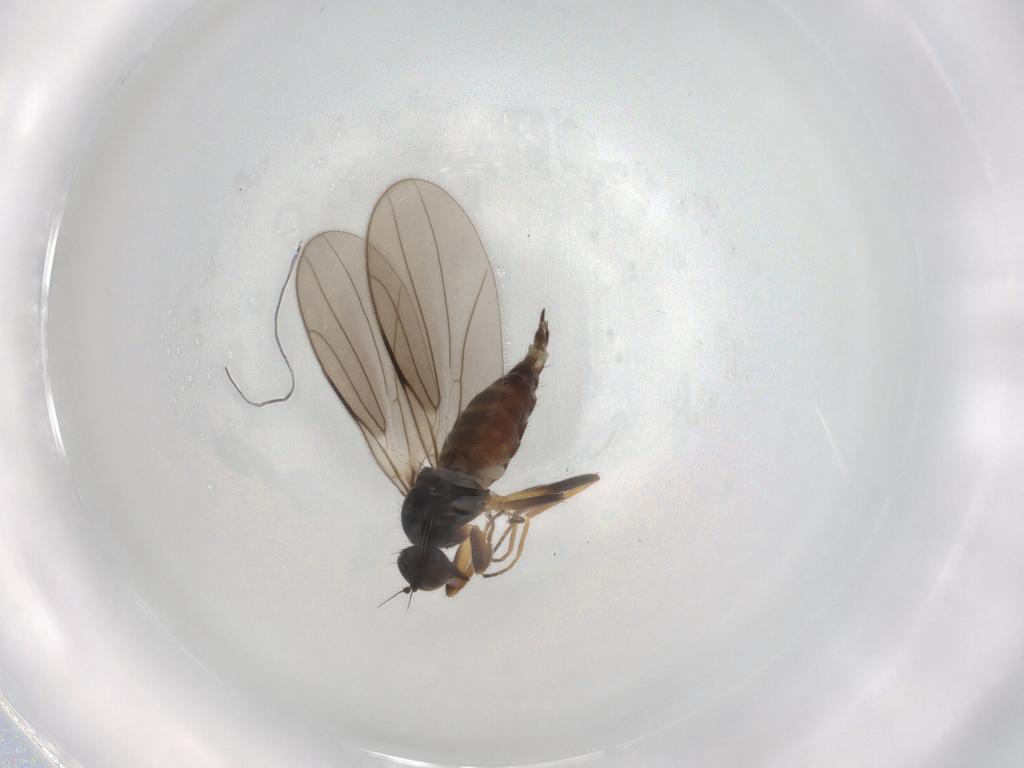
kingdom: Animalia
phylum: Arthropoda
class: Insecta
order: Diptera
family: Hybotidae
